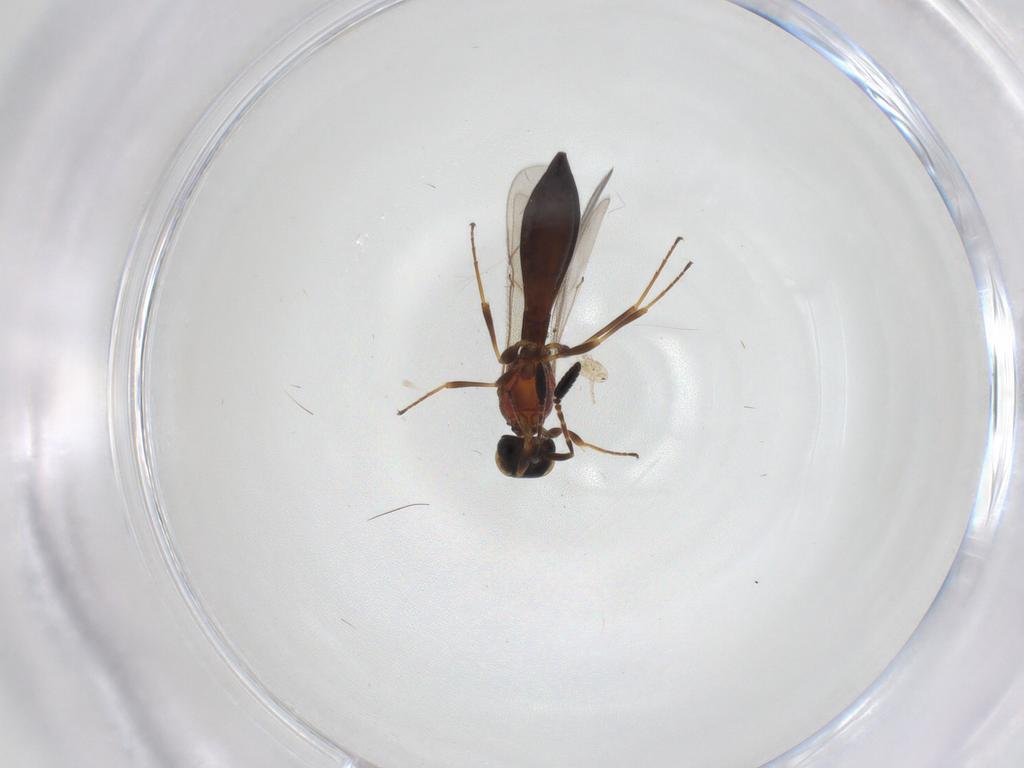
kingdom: Animalia
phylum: Arthropoda
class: Insecta
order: Hymenoptera
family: Scelionidae
